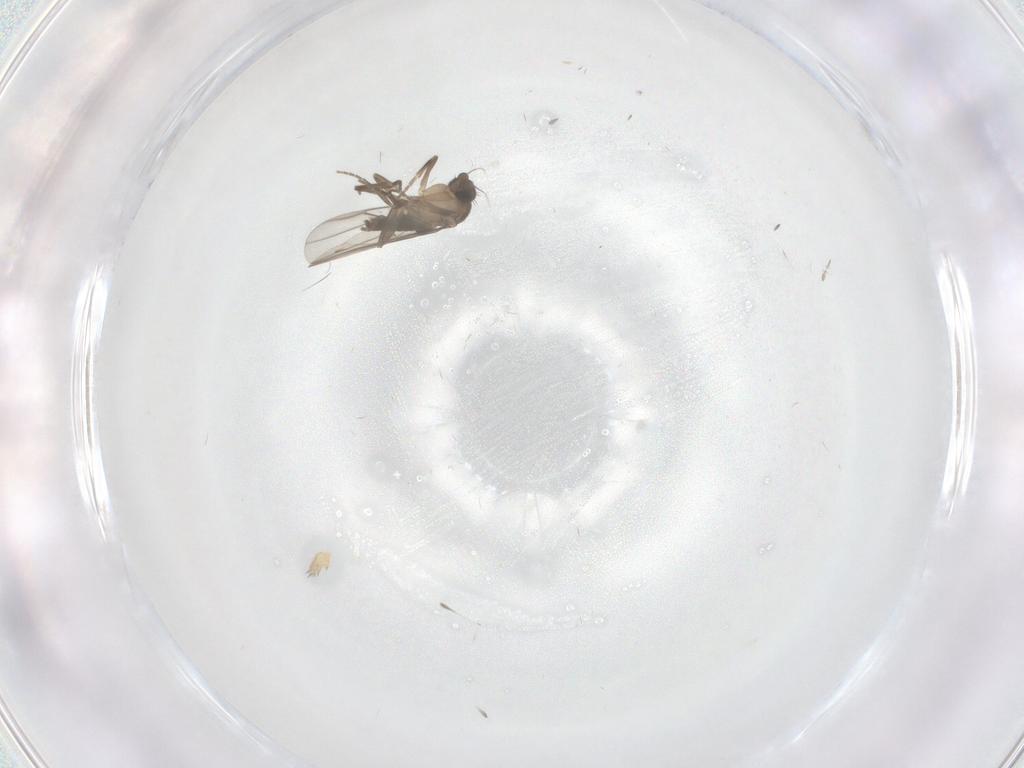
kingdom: Animalia
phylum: Arthropoda
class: Insecta
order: Diptera
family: Phoridae
